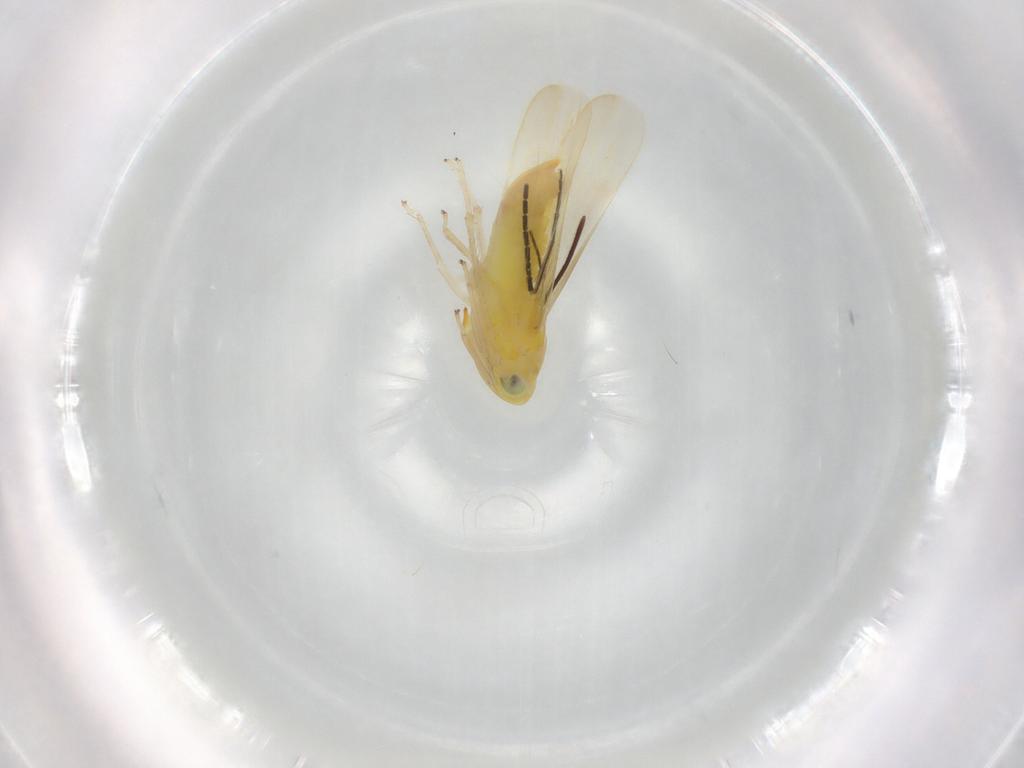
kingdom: Animalia
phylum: Arthropoda
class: Insecta
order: Hemiptera
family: Cicadellidae
